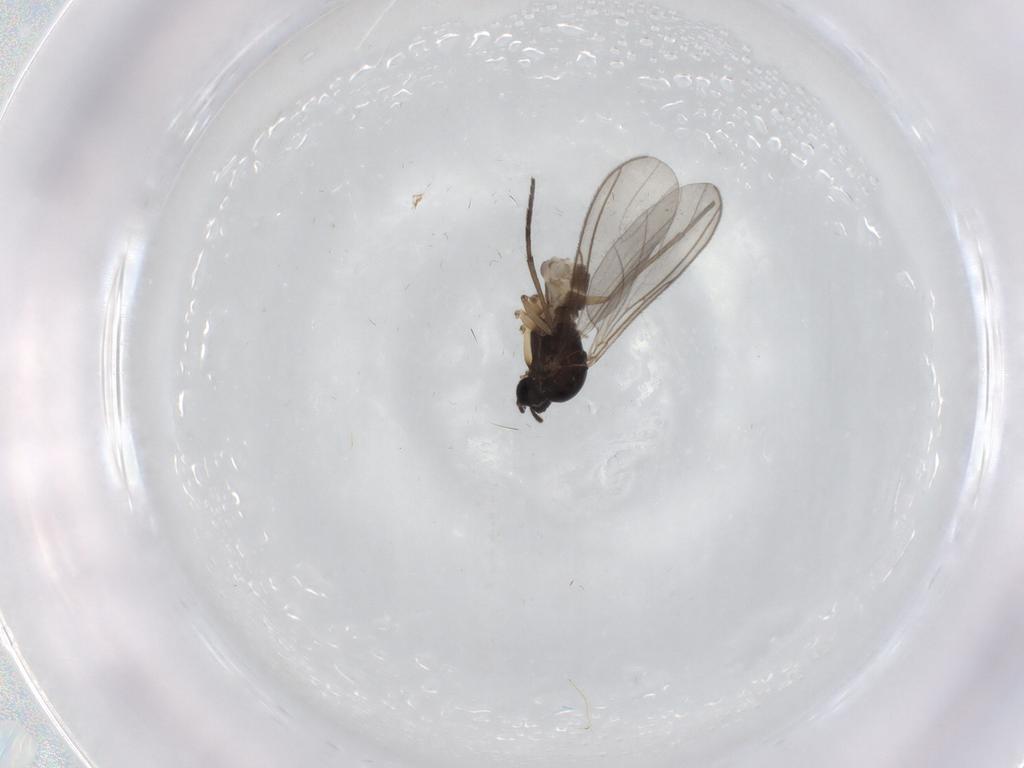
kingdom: Animalia
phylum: Arthropoda
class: Insecta
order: Diptera
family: Sciaridae
